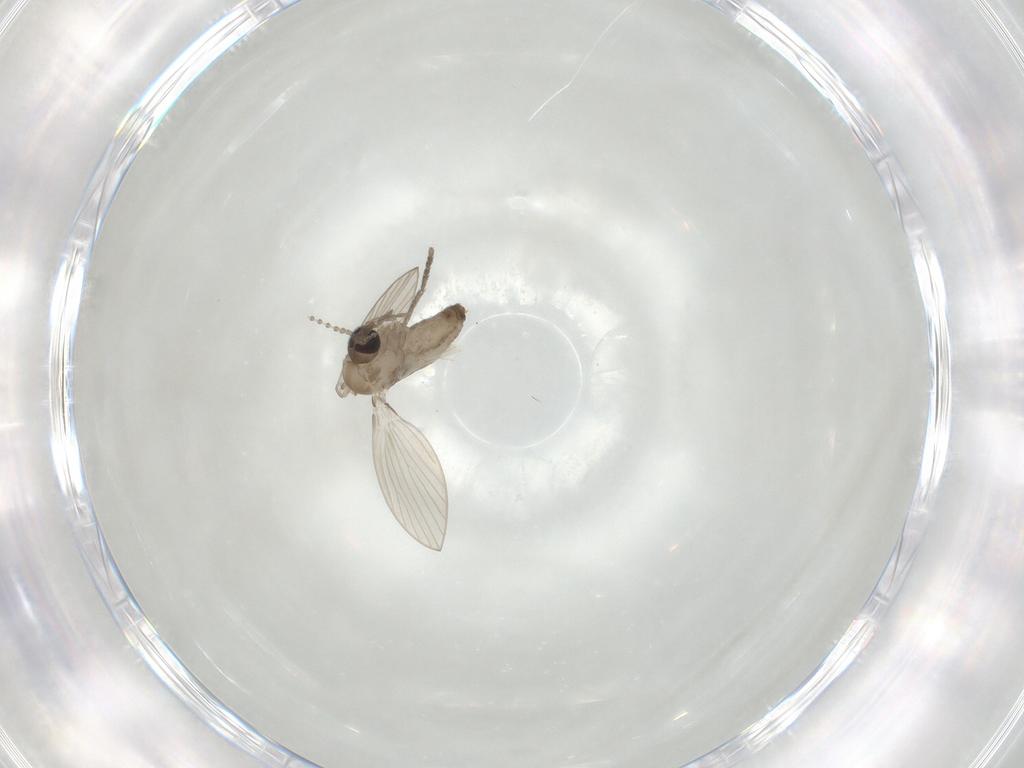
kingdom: Animalia
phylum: Arthropoda
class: Insecta
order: Diptera
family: Psychodidae
